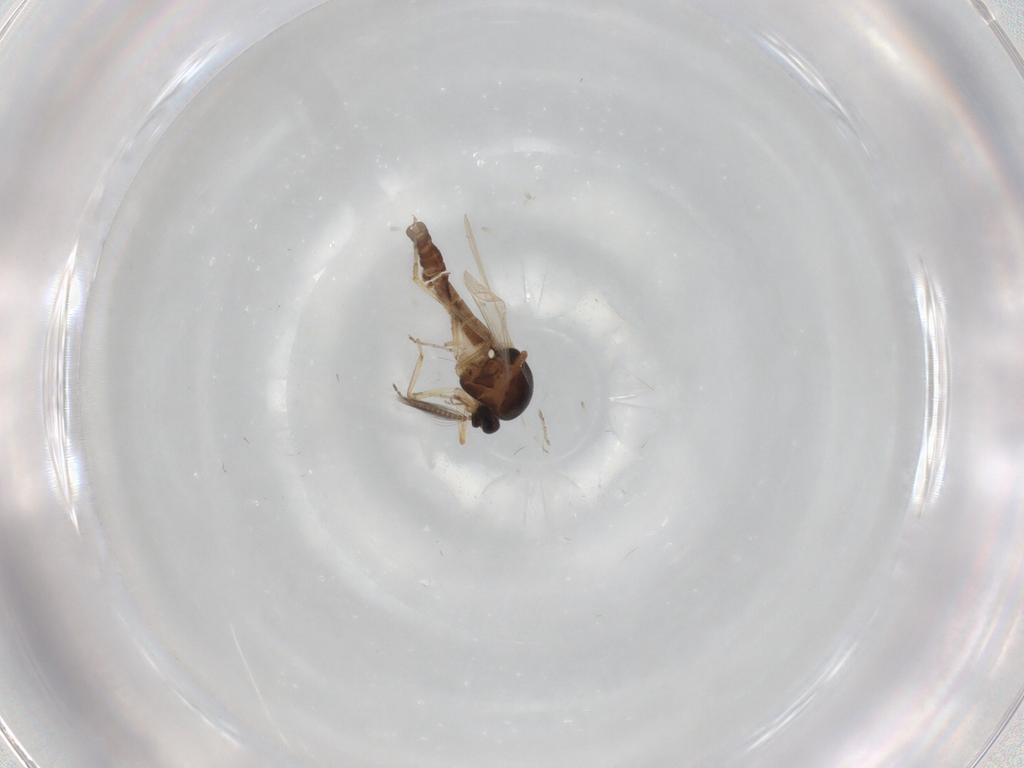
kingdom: Animalia
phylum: Arthropoda
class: Insecta
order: Diptera
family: Ceratopogonidae
